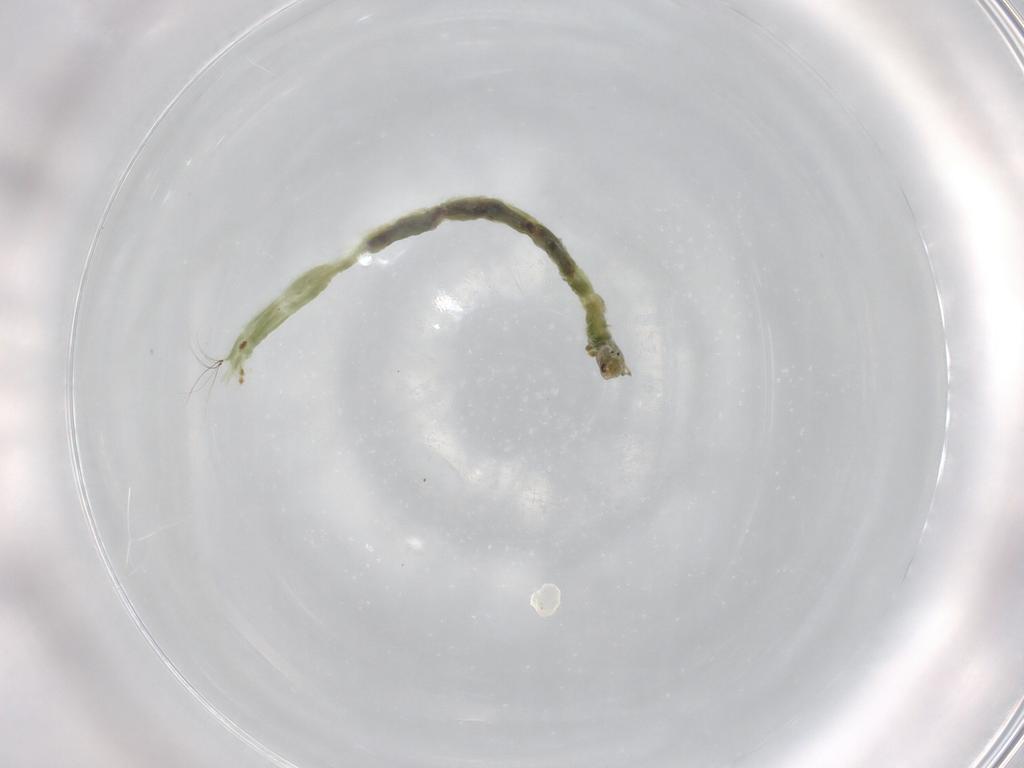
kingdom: Animalia
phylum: Arthropoda
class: Insecta
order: Diptera
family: Chironomidae
